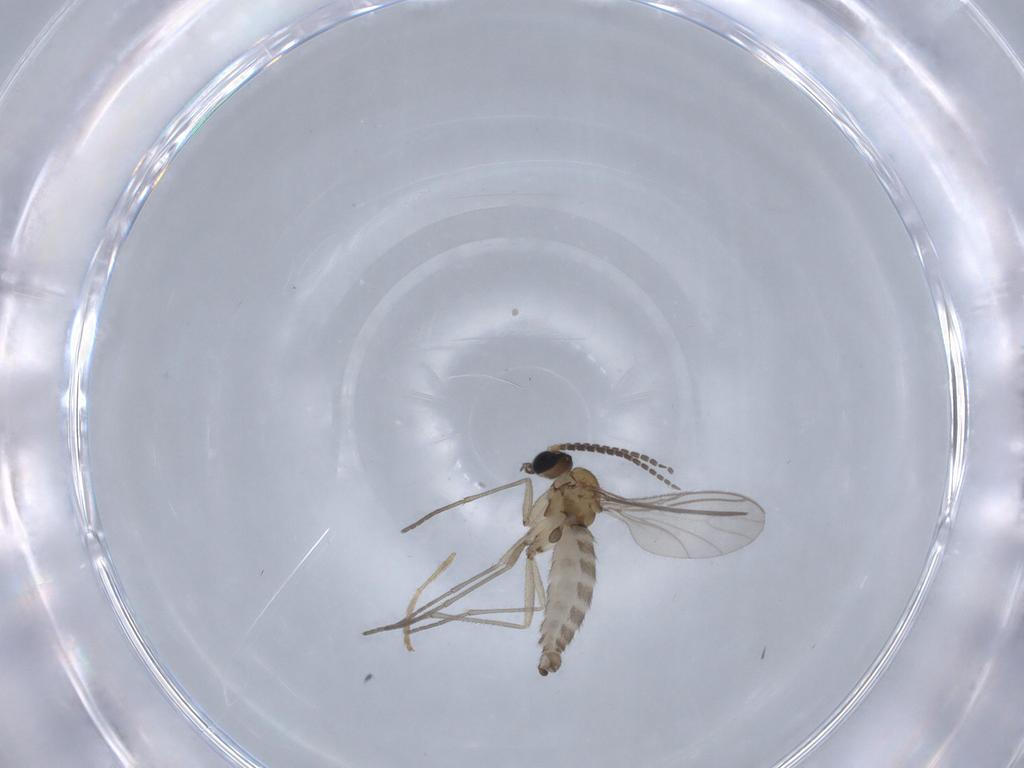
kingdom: Animalia
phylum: Arthropoda
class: Insecta
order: Diptera
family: Sciaridae
